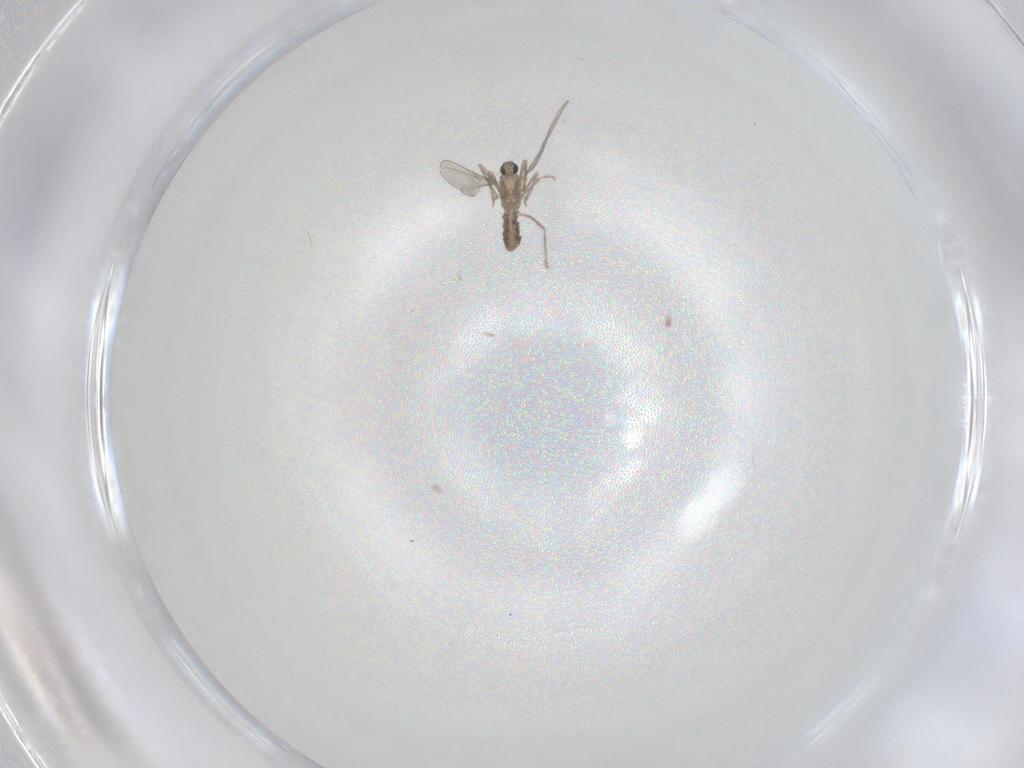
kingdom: Animalia
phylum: Arthropoda
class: Insecta
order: Diptera
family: Cecidomyiidae
